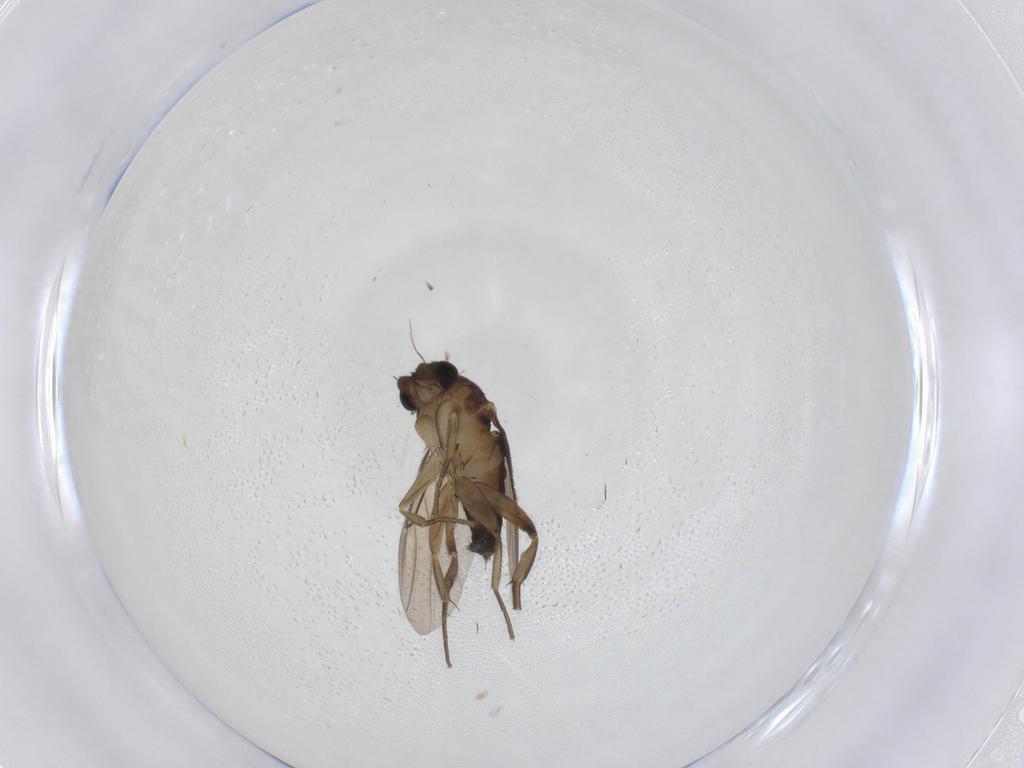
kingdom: Animalia
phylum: Arthropoda
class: Insecta
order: Diptera
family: Phoridae
